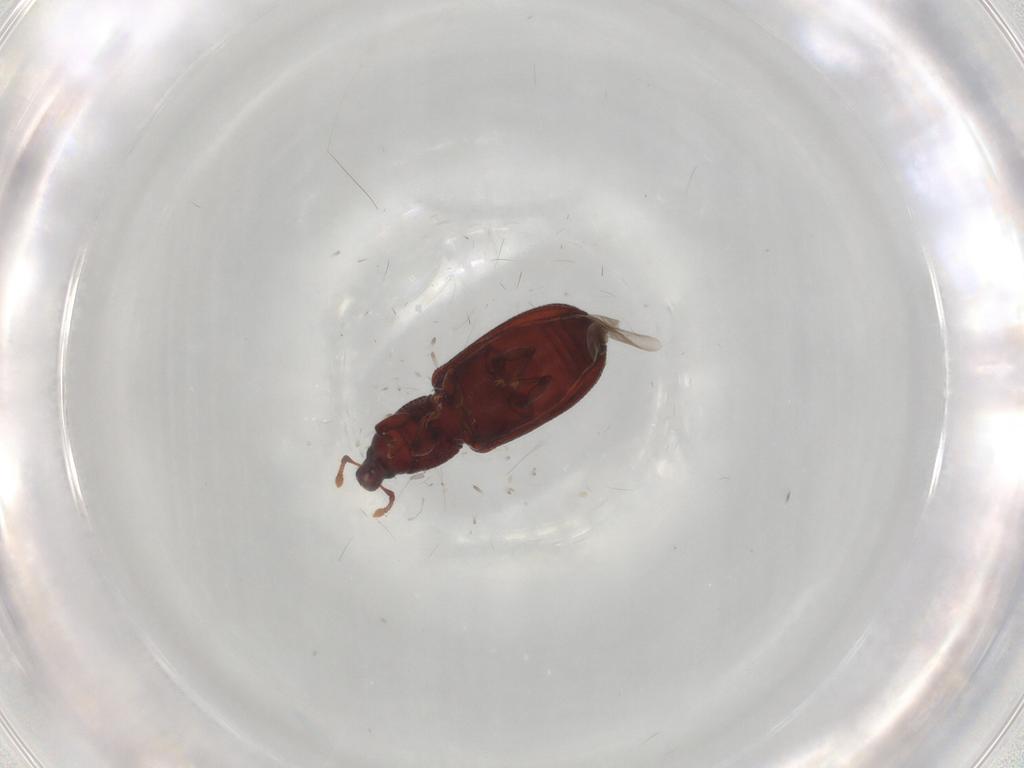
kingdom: Animalia
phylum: Arthropoda
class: Insecta
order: Coleoptera
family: Curculionidae
